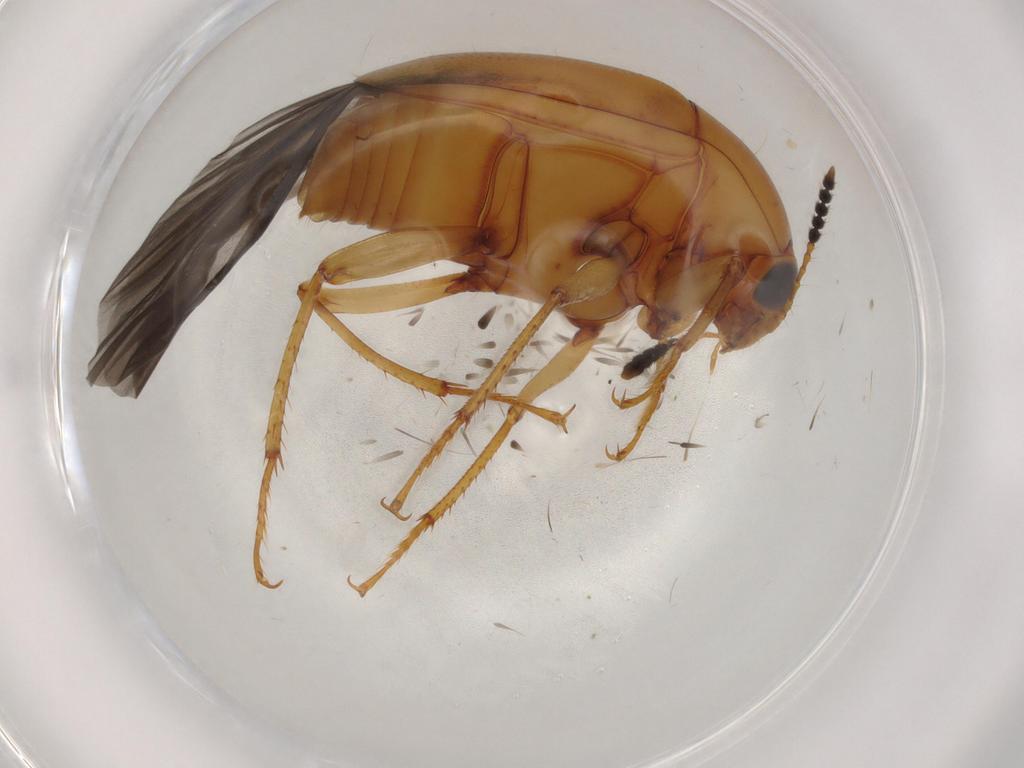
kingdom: Animalia
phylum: Arthropoda
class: Insecta
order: Coleoptera
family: Staphylinidae
